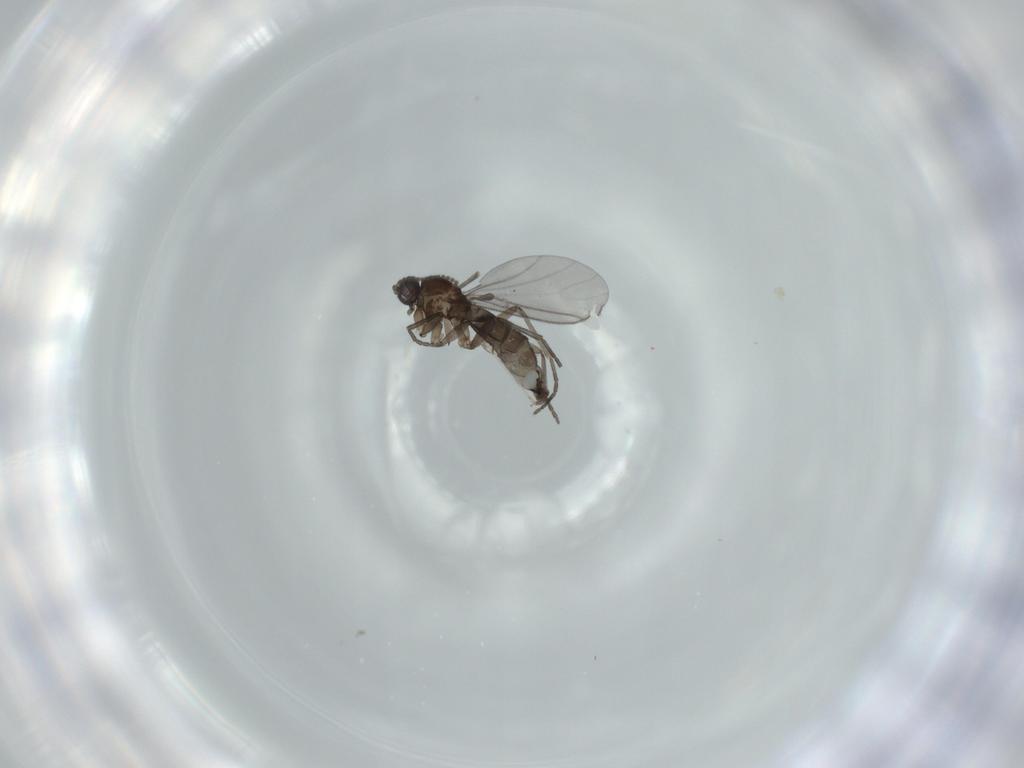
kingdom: Animalia
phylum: Arthropoda
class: Insecta
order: Diptera
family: Cecidomyiidae
